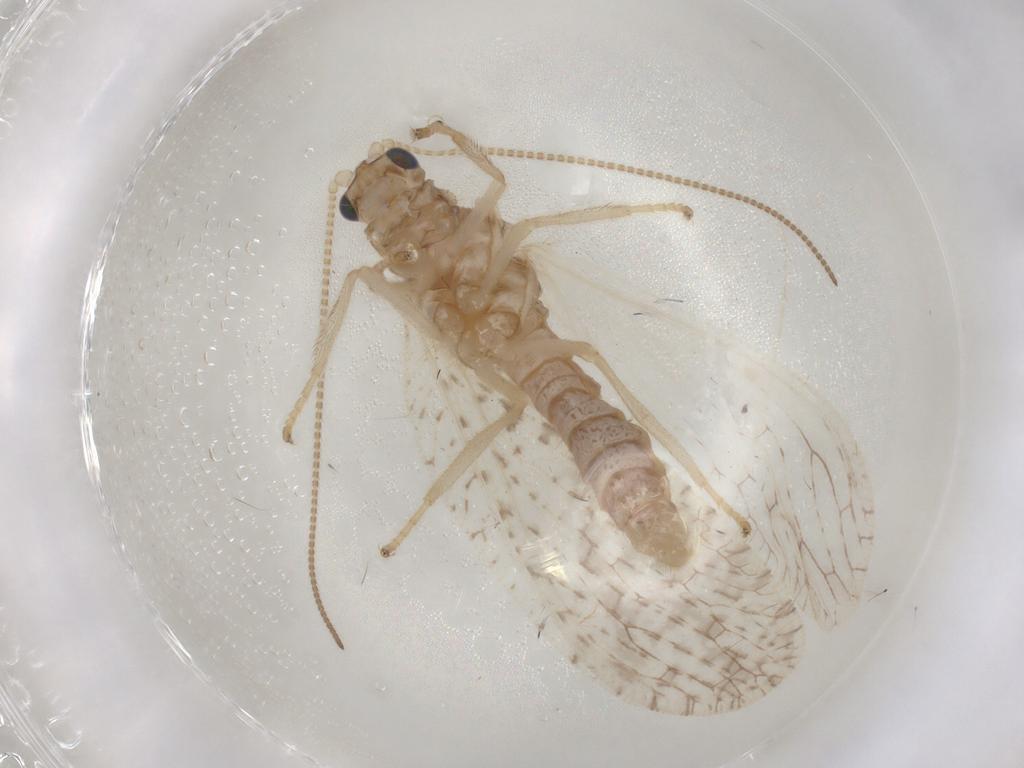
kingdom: Animalia
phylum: Arthropoda
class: Insecta
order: Neuroptera
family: Hemerobiidae
